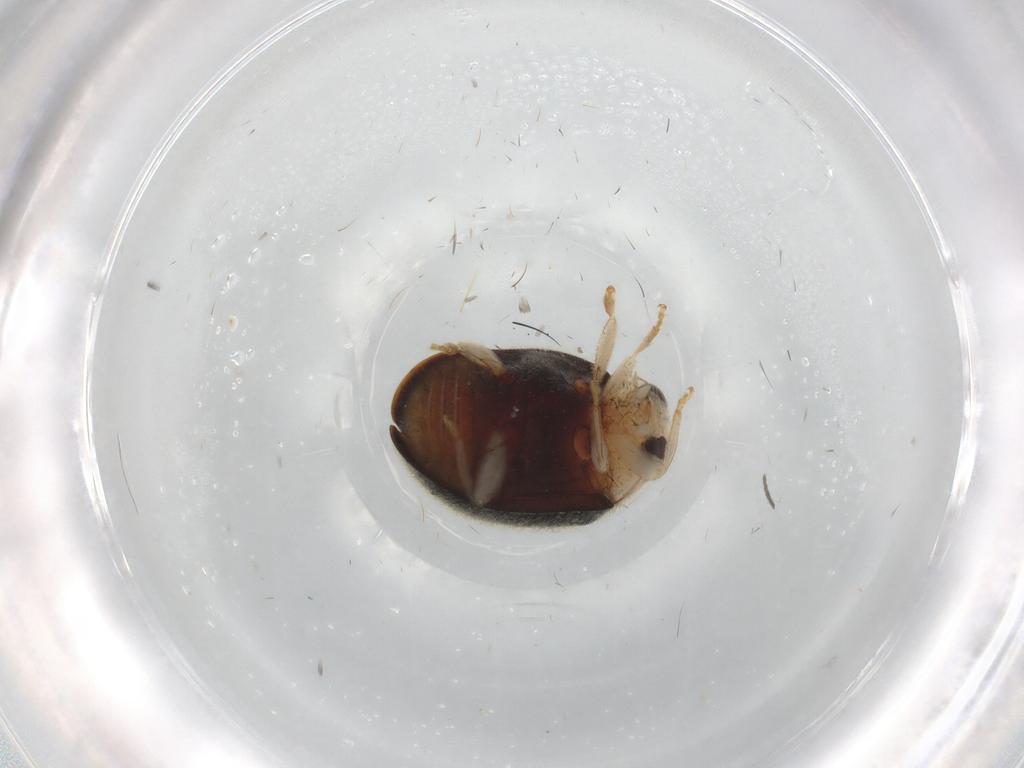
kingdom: Animalia
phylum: Arthropoda
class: Insecta
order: Coleoptera
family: Coccinellidae
